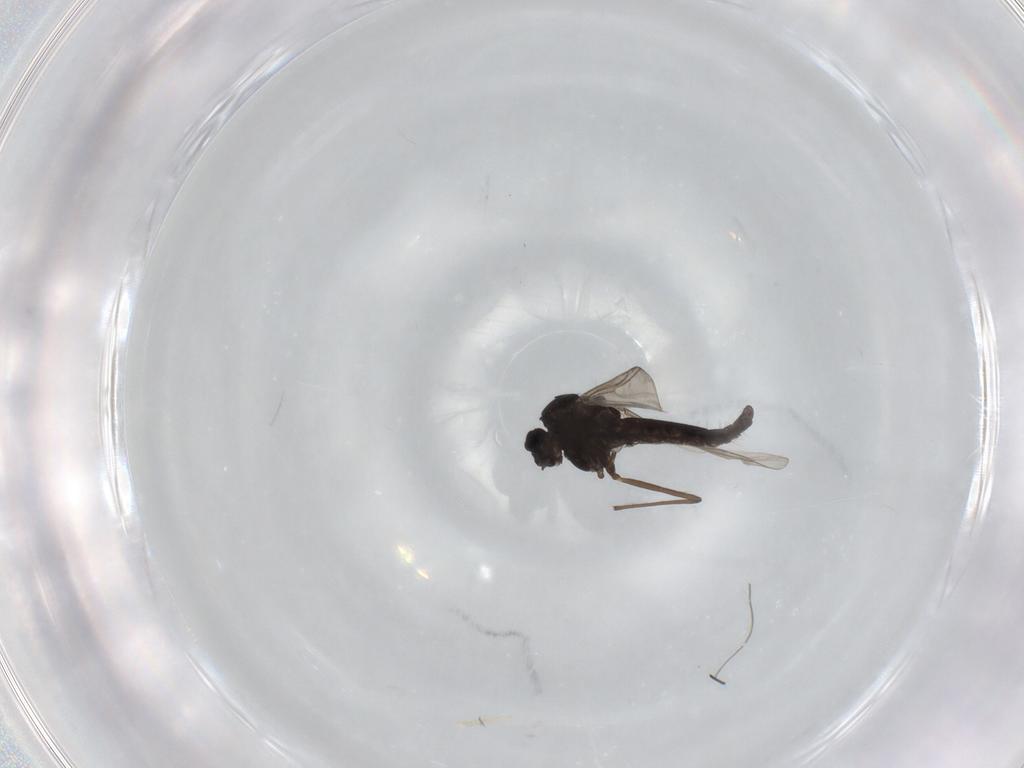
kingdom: Animalia
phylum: Arthropoda
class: Insecta
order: Diptera
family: Chironomidae
